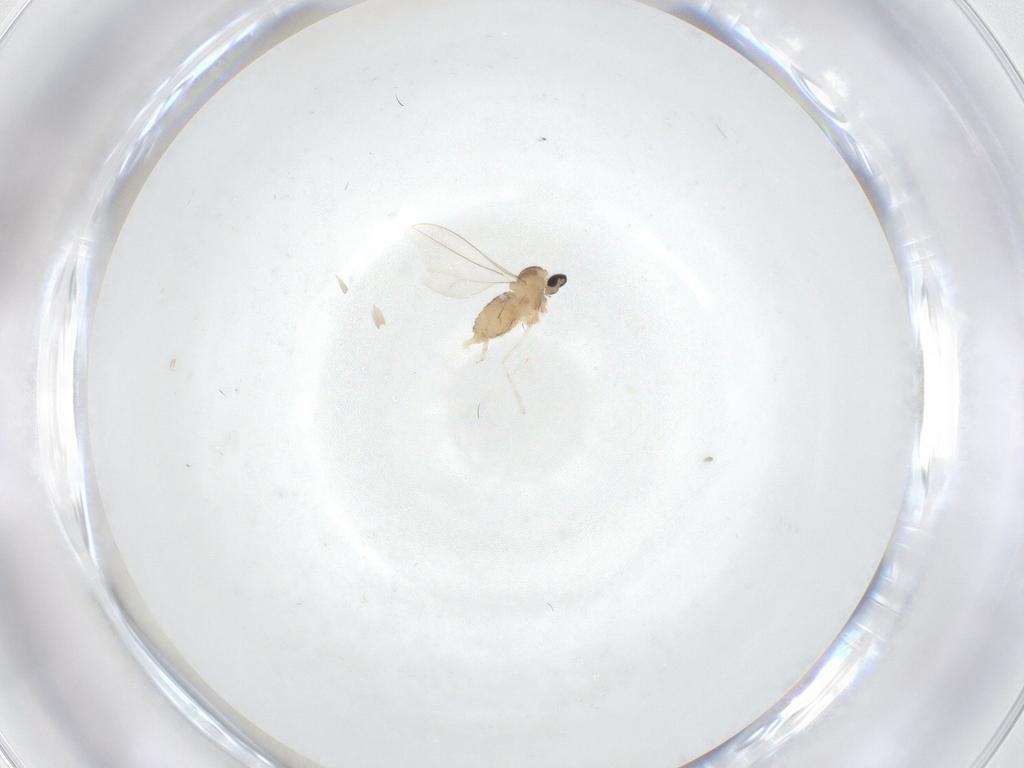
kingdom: Animalia
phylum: Arthropoda
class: Insecta
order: Diptera
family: Cecidomyiidae
